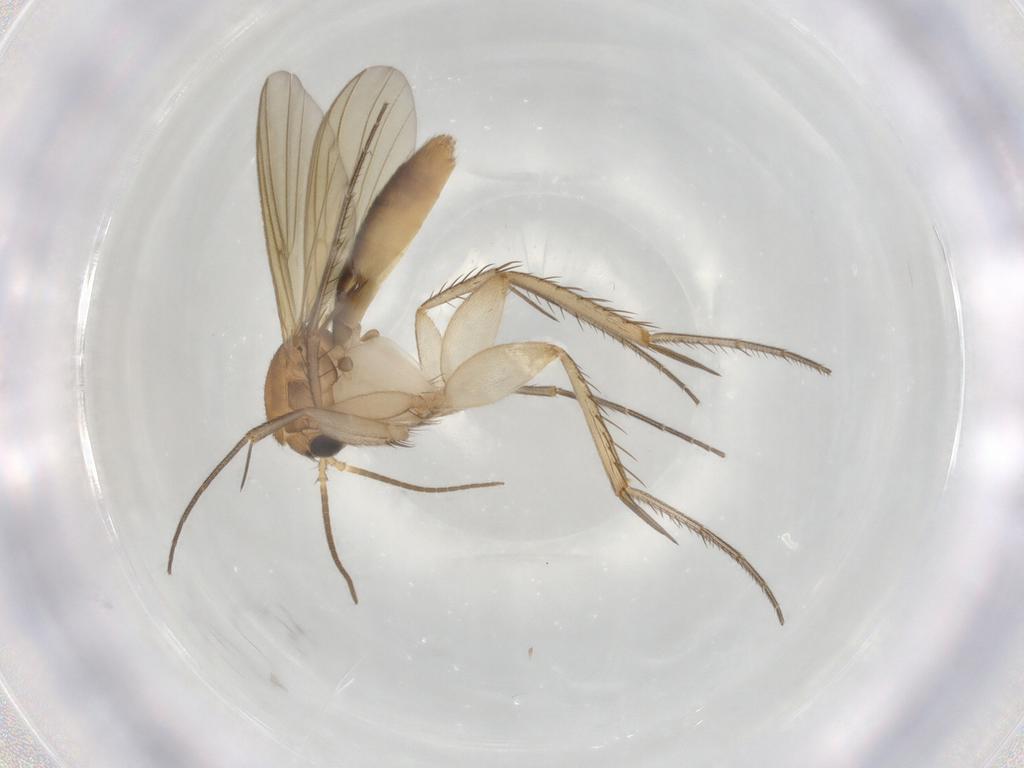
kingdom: Animalia
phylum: Arthropoda
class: Insecta
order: Diptera
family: Mycetophilidae
